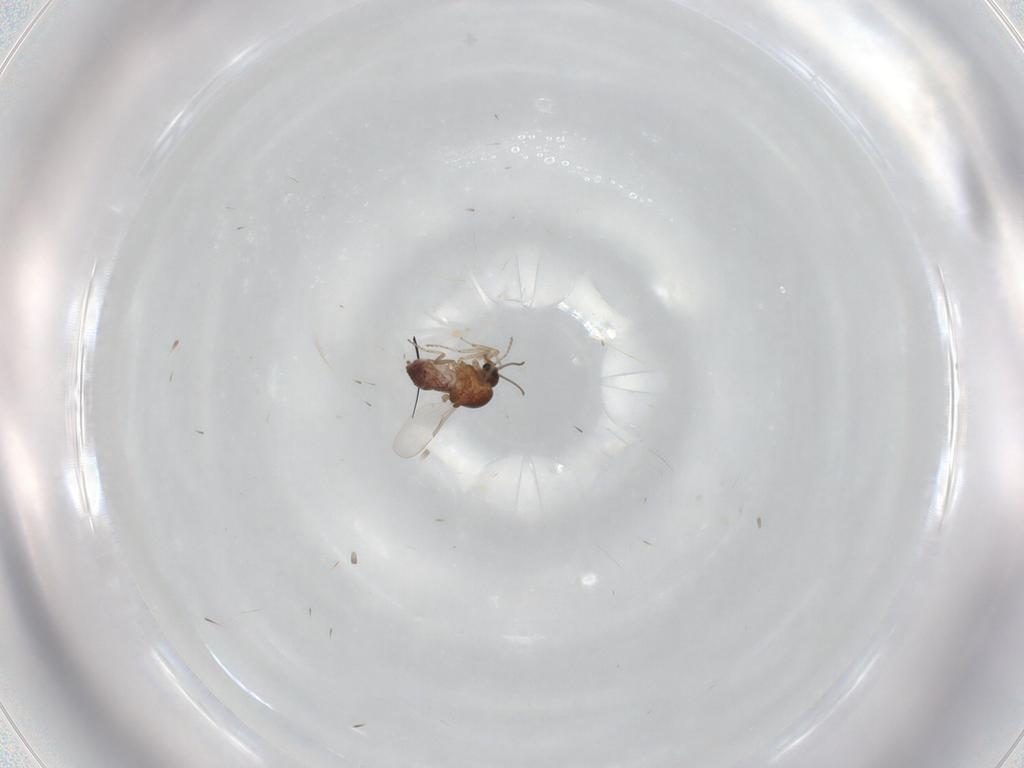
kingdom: Animalia
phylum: Arthropoda
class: Insecta
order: Diptera
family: Ceratopogonidae
